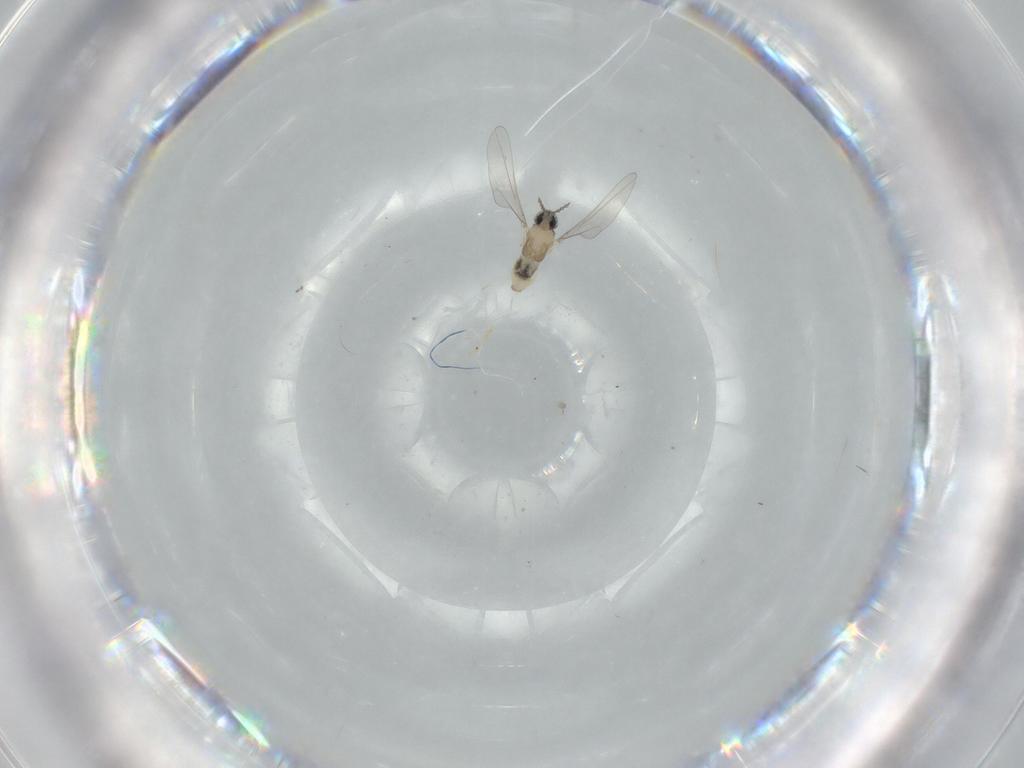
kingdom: Animalia
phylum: Arthropoda
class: Insecta
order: Diptera
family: Cecidomyiidae
